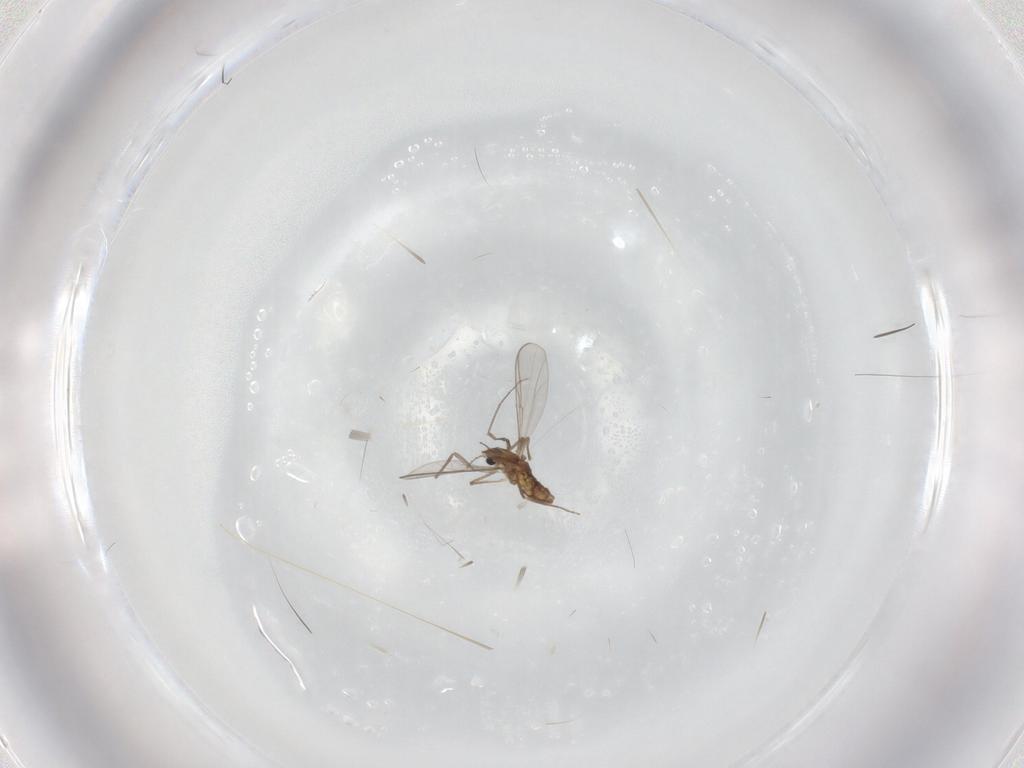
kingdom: Animalia
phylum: Arthropoda
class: Insecta
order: Diptera
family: Chironomidae
